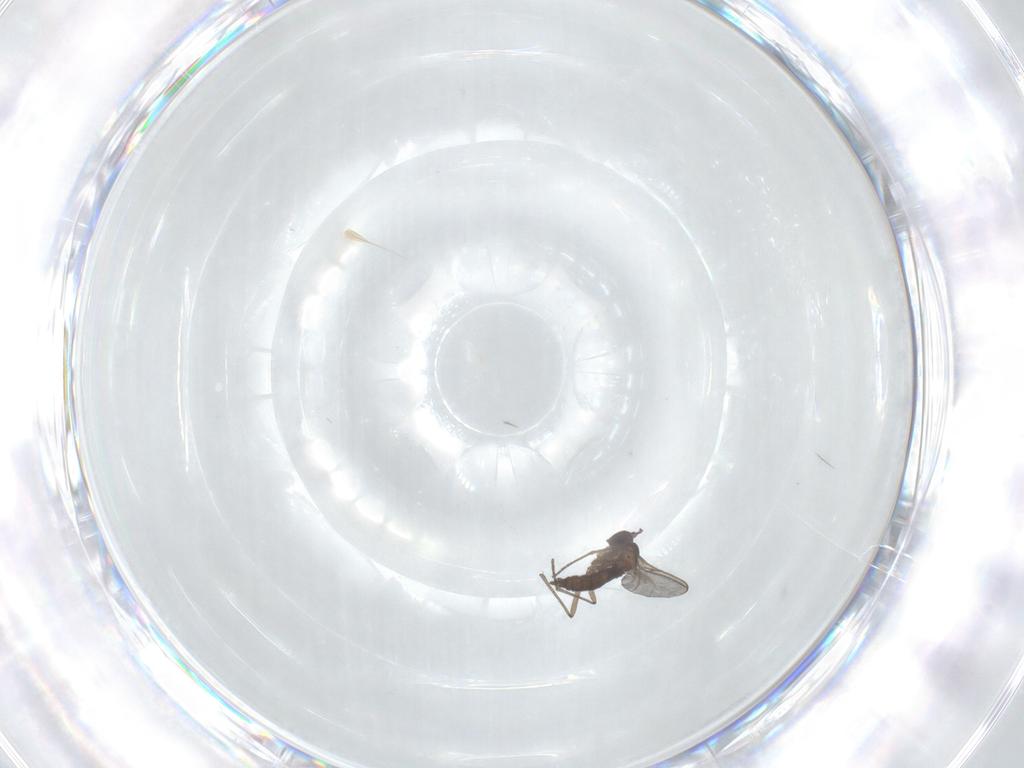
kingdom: Animalia
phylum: Arthropoda
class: Insecta
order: Diptera
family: Sciaridae
